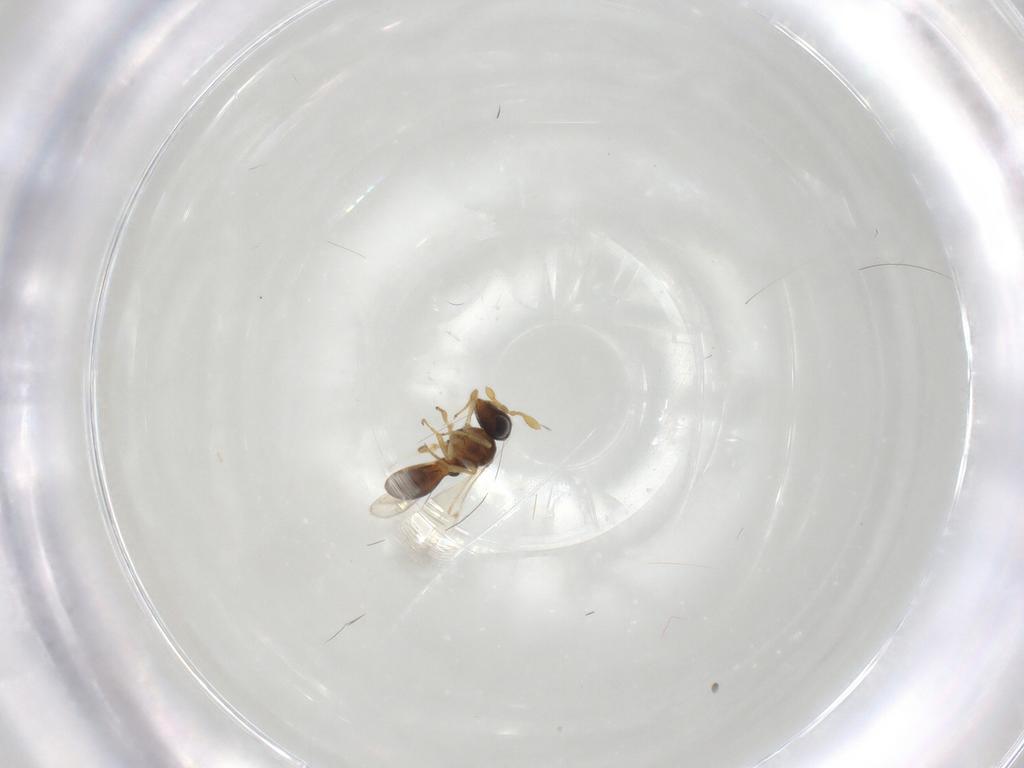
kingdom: Animalia
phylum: Arthropoda
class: Insecta
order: Hymenoptera
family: Scelionidae
